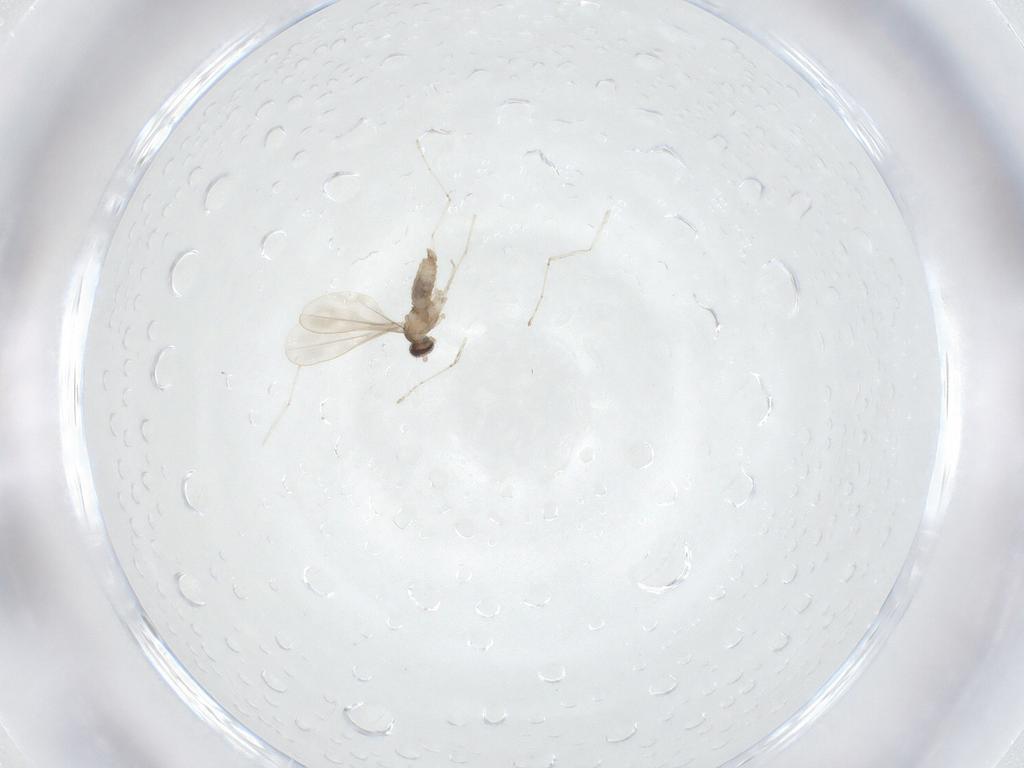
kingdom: Animalia
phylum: Arthropoda
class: Insecta
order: Diptera
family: Cecidomyiidae
